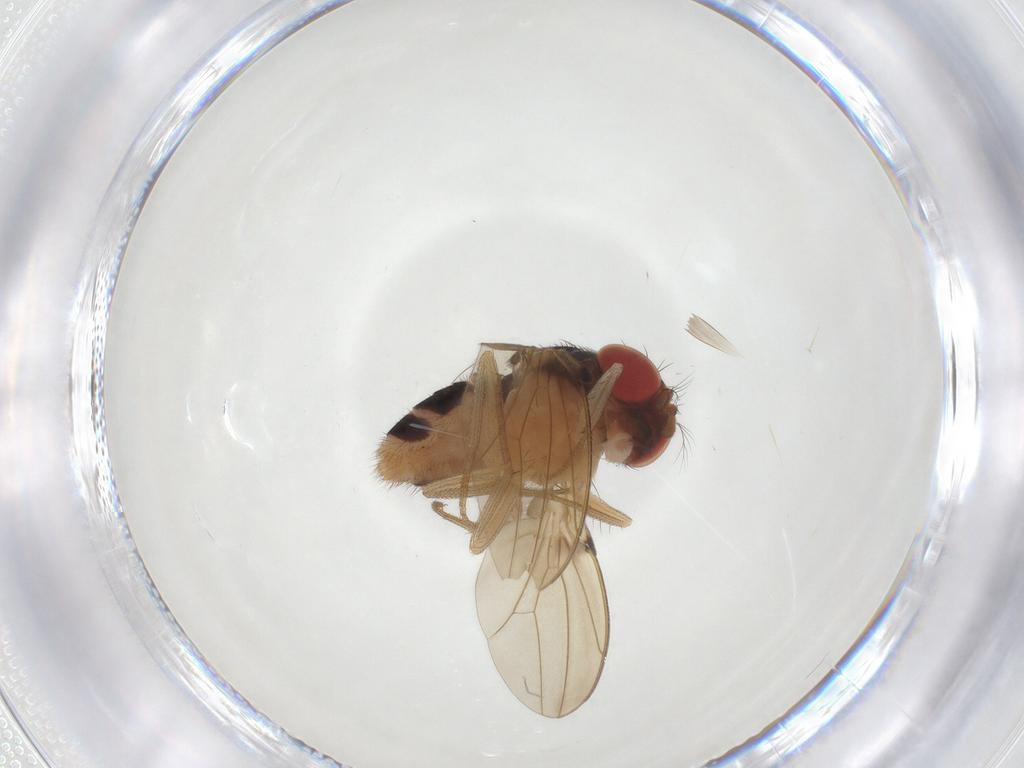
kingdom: Animalia
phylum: Arthropoda
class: Insecta
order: Diptera
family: Drosophilidae
